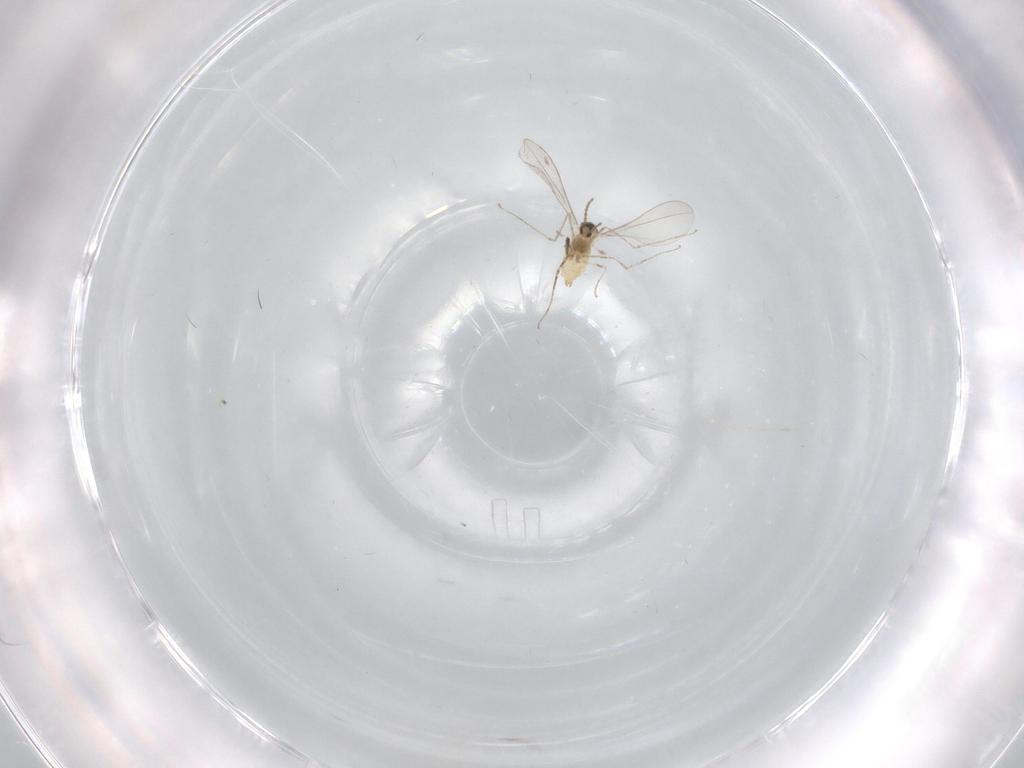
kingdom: Animalia
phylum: Arthropoda
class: Insecta
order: Diptera
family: Cecidomyiidae
